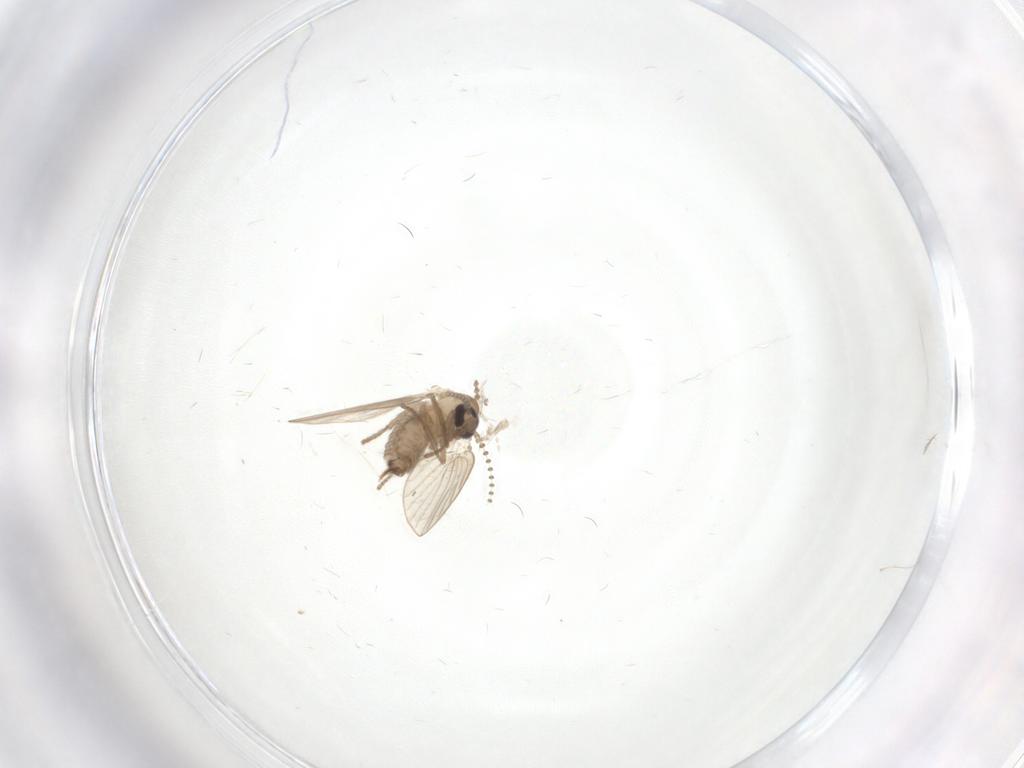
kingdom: Animalia
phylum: Arthropoda
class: Insecta
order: Diptera
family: Psychodidae
